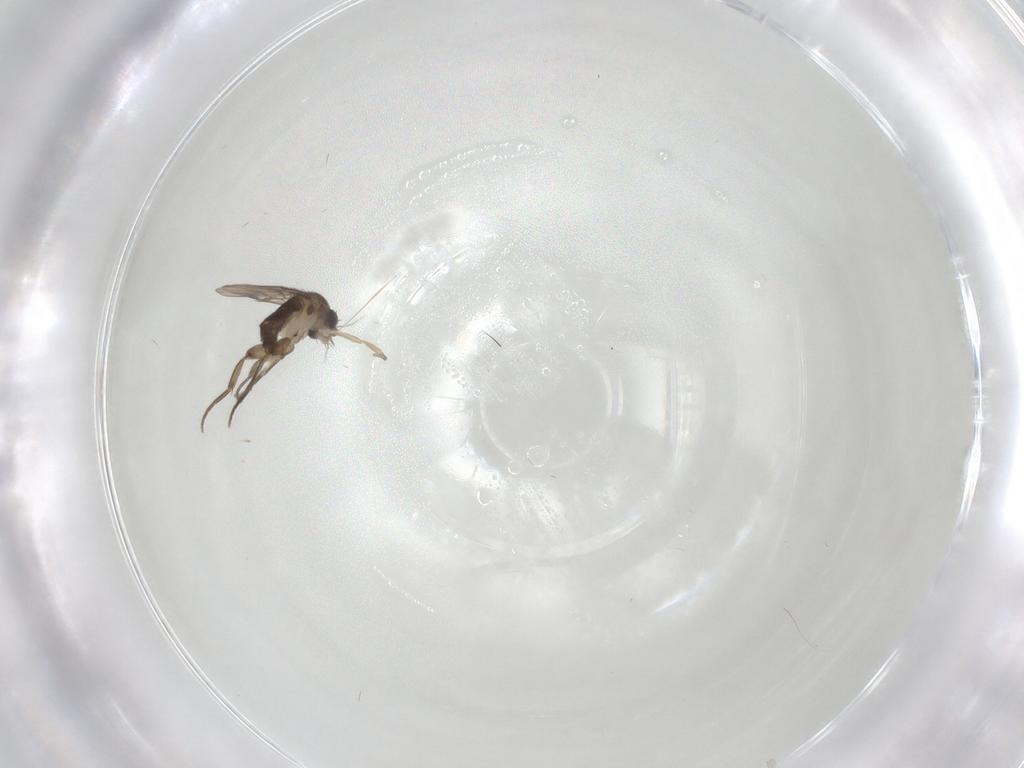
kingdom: Animalia
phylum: Arthropoda
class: Insecta
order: Diptera
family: Phoridae
